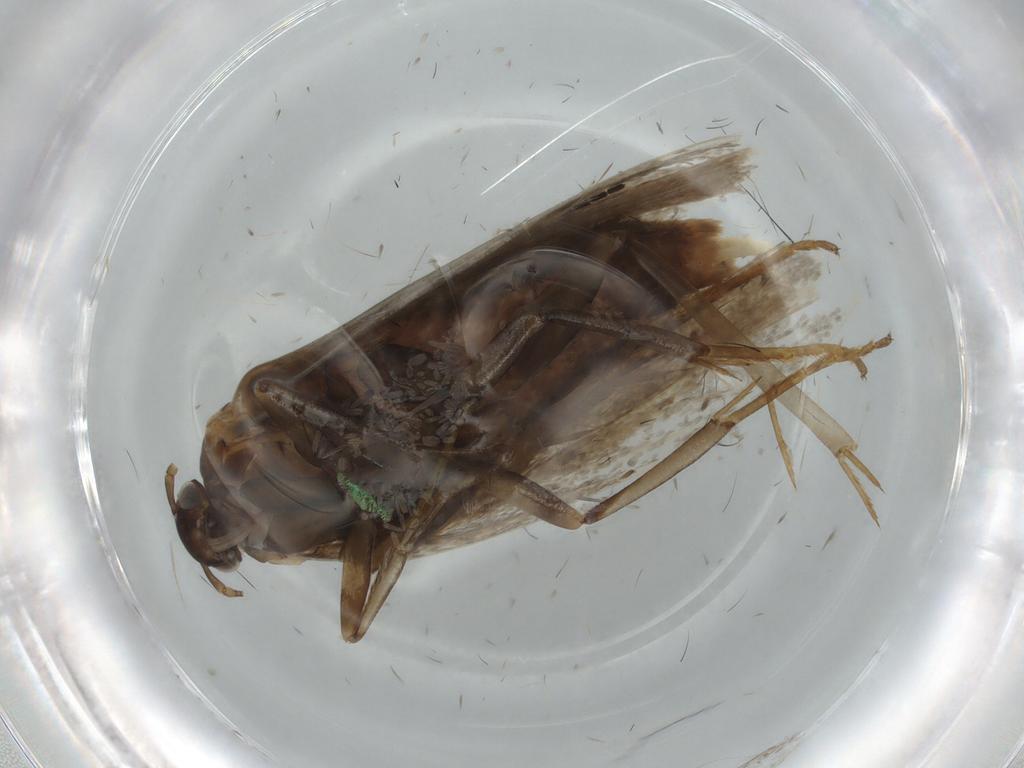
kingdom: Animalia
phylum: Arthropoda
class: Insecta
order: Lepidoptera
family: Gelechiidae
